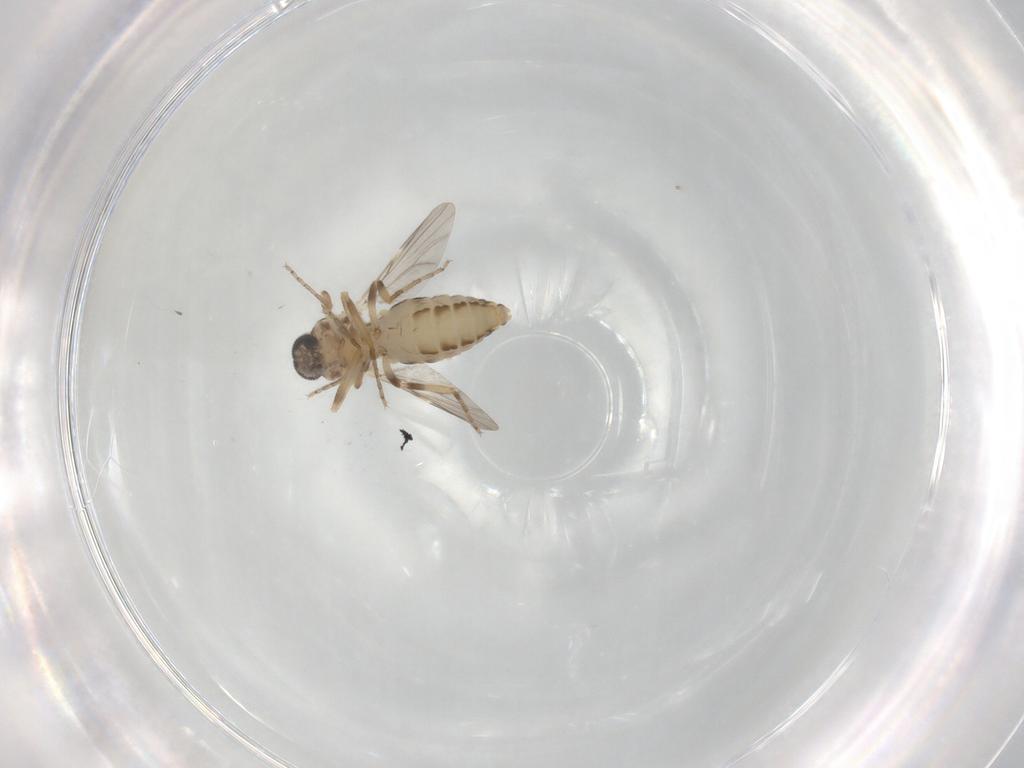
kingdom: Animalia
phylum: Arthropoda
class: Insecta
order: Diptera
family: Ceratopogonidae
